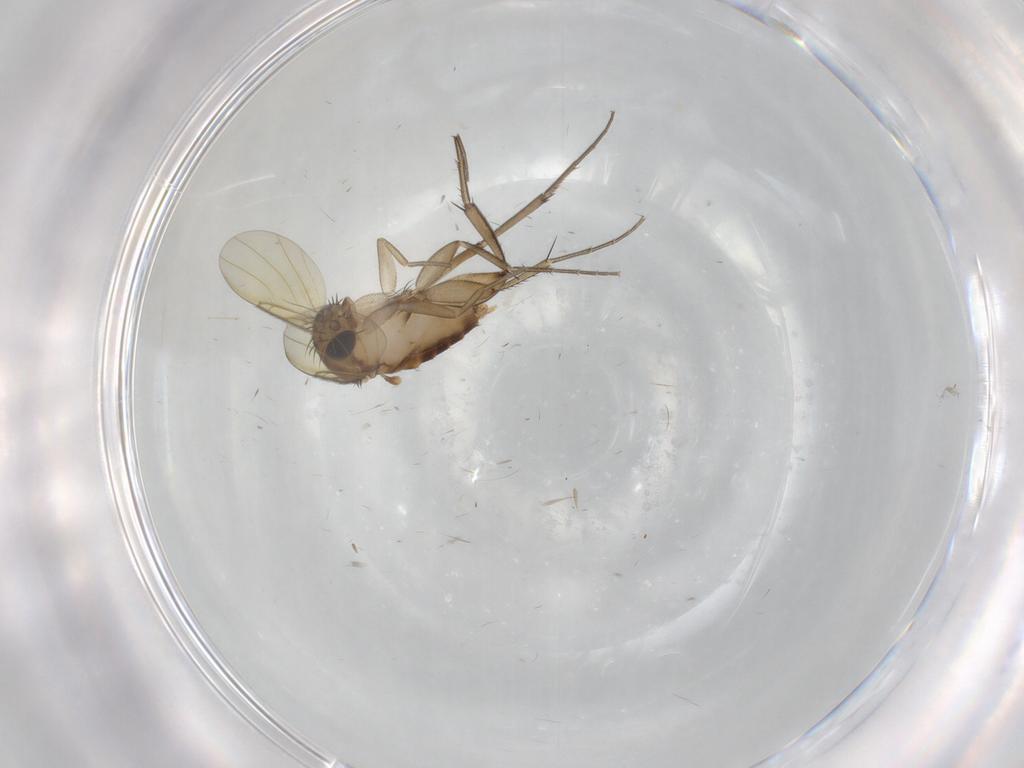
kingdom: Animalia
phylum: Arthropoda
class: Insecta
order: Diptera
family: Phoridae
